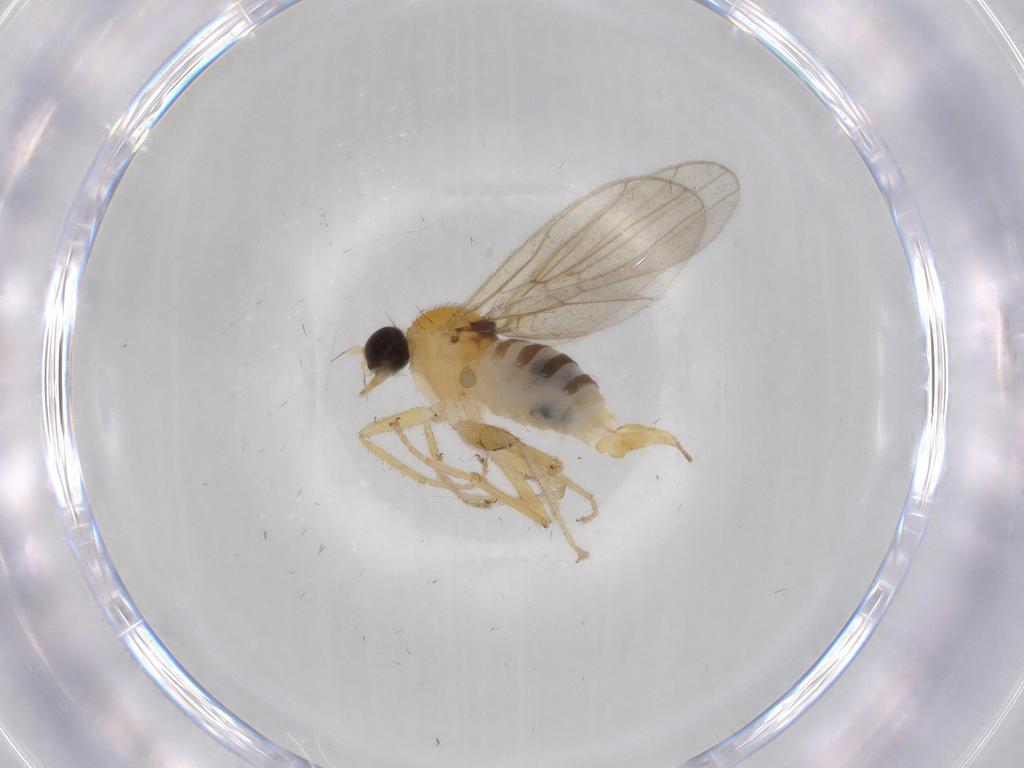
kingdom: Animalia
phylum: Arthropoda
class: Insecta
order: Diptera
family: Hybotidae
